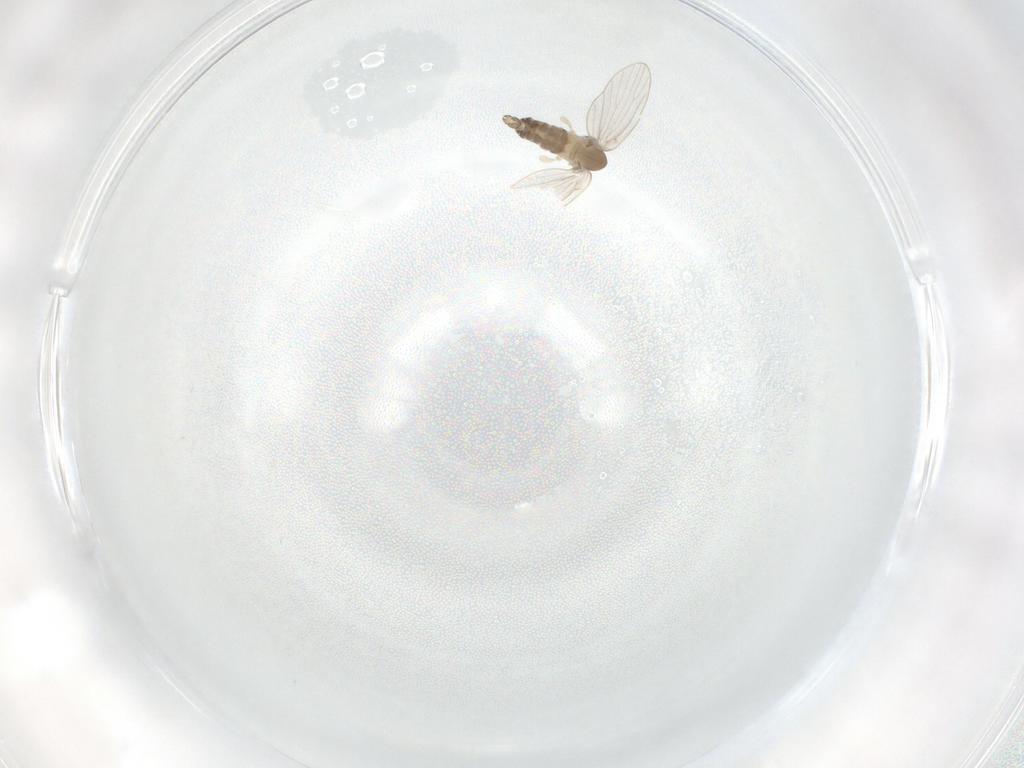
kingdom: Animalia
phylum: Arthropoda
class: Insecta
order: Diptera
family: Cecidomyiidae
